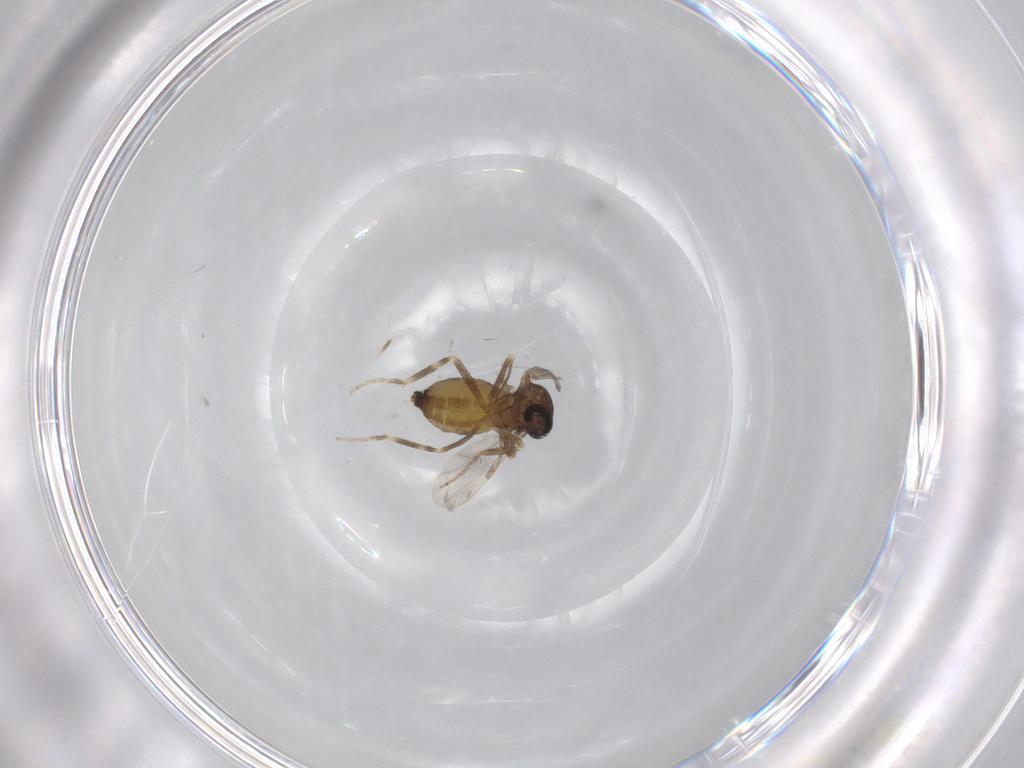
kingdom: Animalia
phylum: Arthropoda
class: Insecta
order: Diptera
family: Ceratopogonidae
